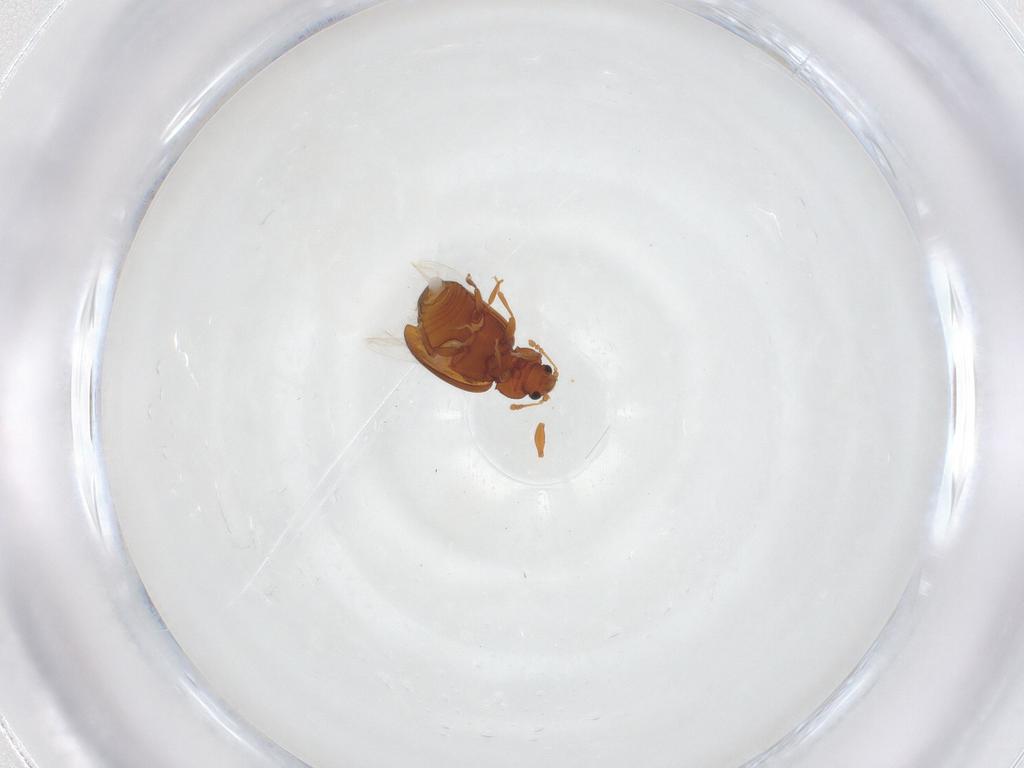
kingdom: Animalia
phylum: Arthropoda
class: Insecta
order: Coleoptera
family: Latridiidae
